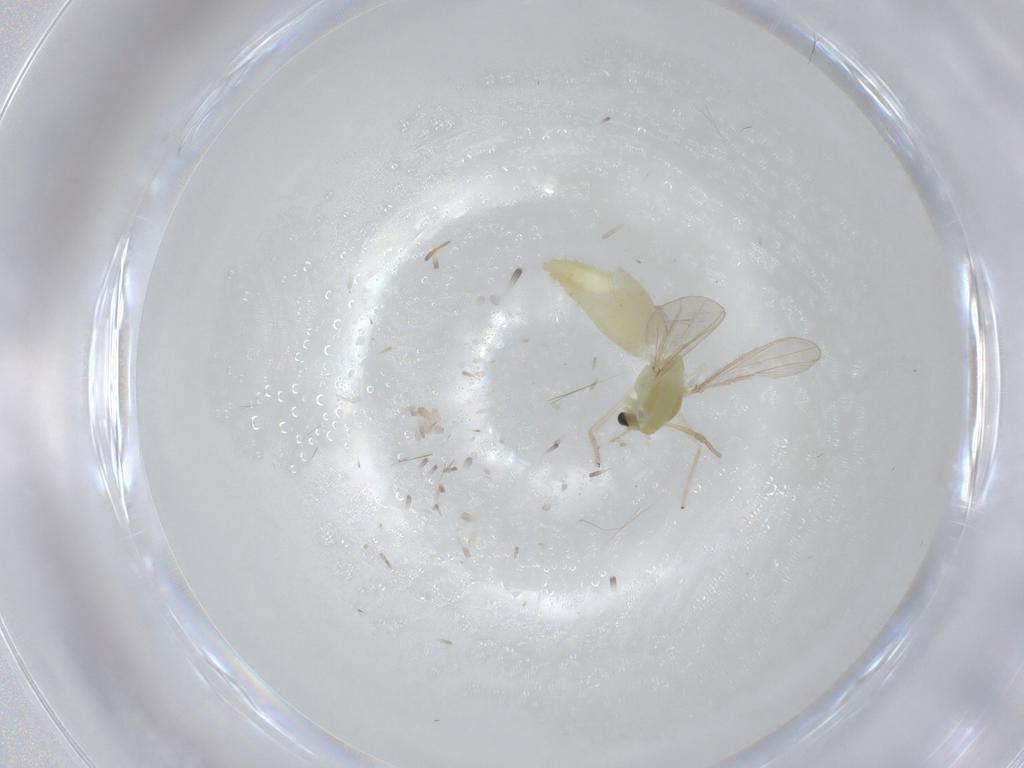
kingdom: Animalia
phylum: Arthropoda
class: Insecta
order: Diptera
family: Chironomidae
